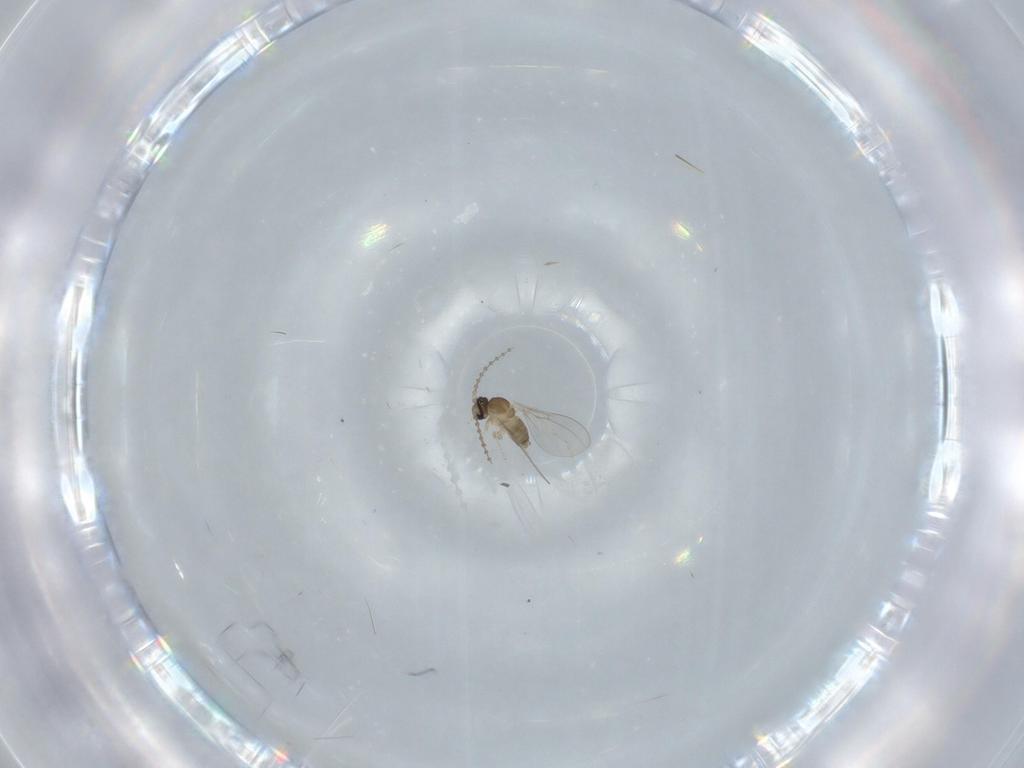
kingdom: Animalia
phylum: Arthropoda
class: Insecta
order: Diptera
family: Cecidomyiidae
